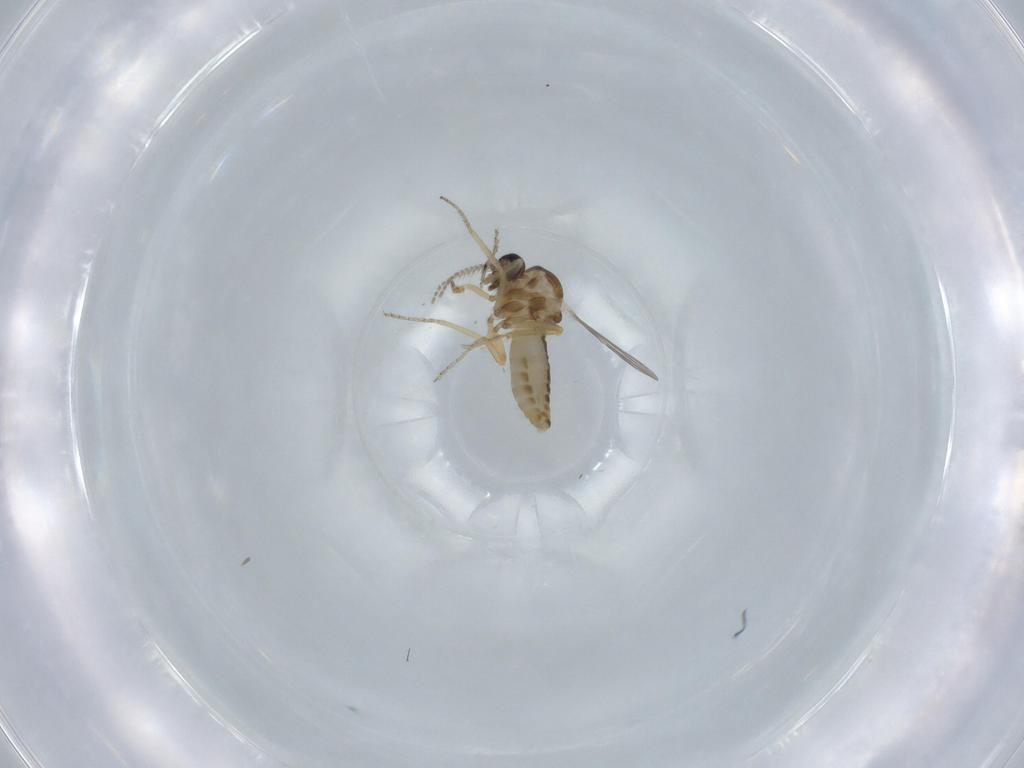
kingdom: Animalia
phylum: Arthropoda
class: Insecta
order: Diptera
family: Ceratopogonidae
